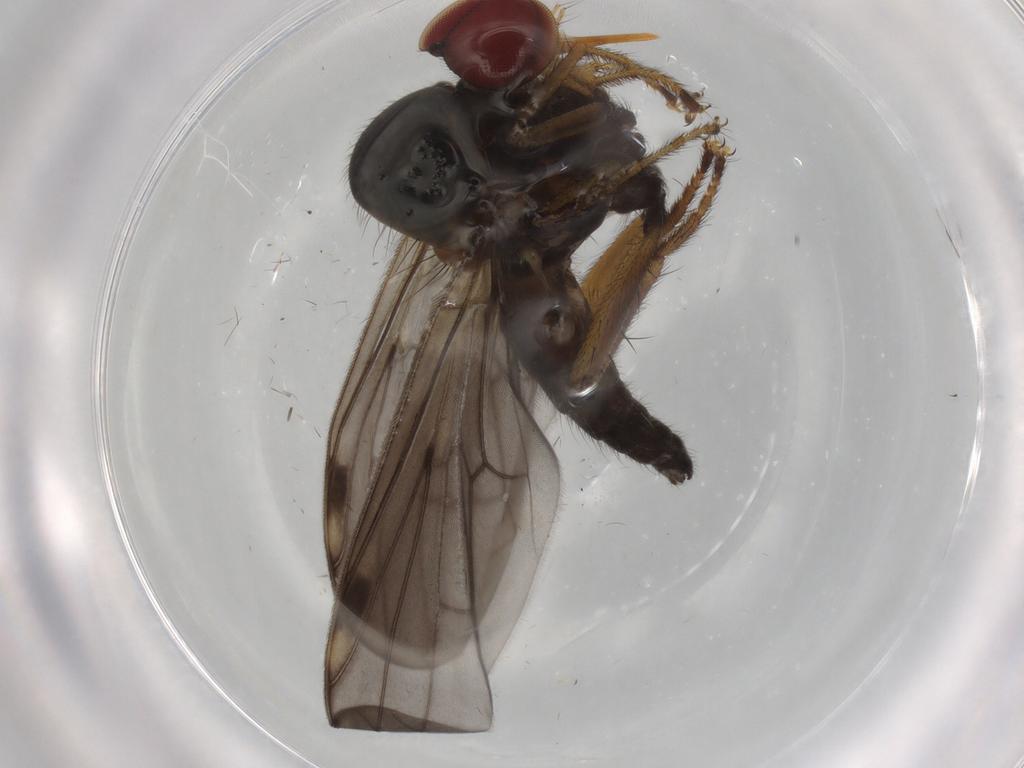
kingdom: Animalia
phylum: Arthropoda
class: Insecta
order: Diptera
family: Hybotidae
